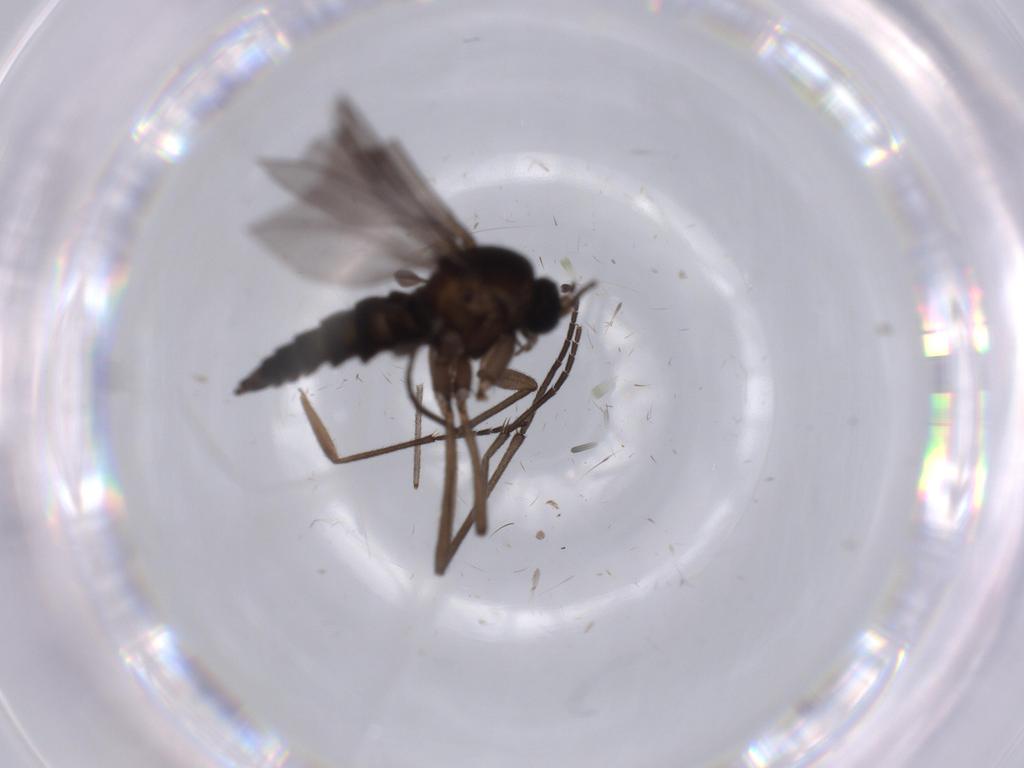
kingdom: Animalia
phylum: Arthropoda
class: Insecta
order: Diptera
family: Sciaridae
